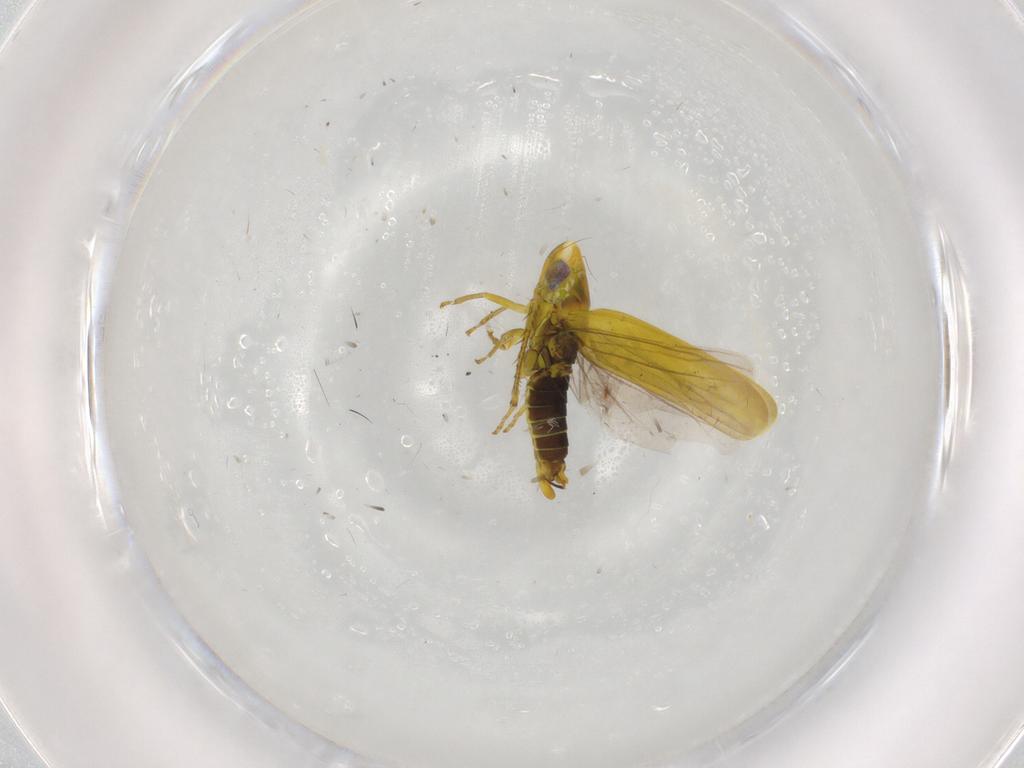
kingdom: Animalia
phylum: Arthropoda
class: Insecta
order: Hemiptera
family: Cicadellidae
